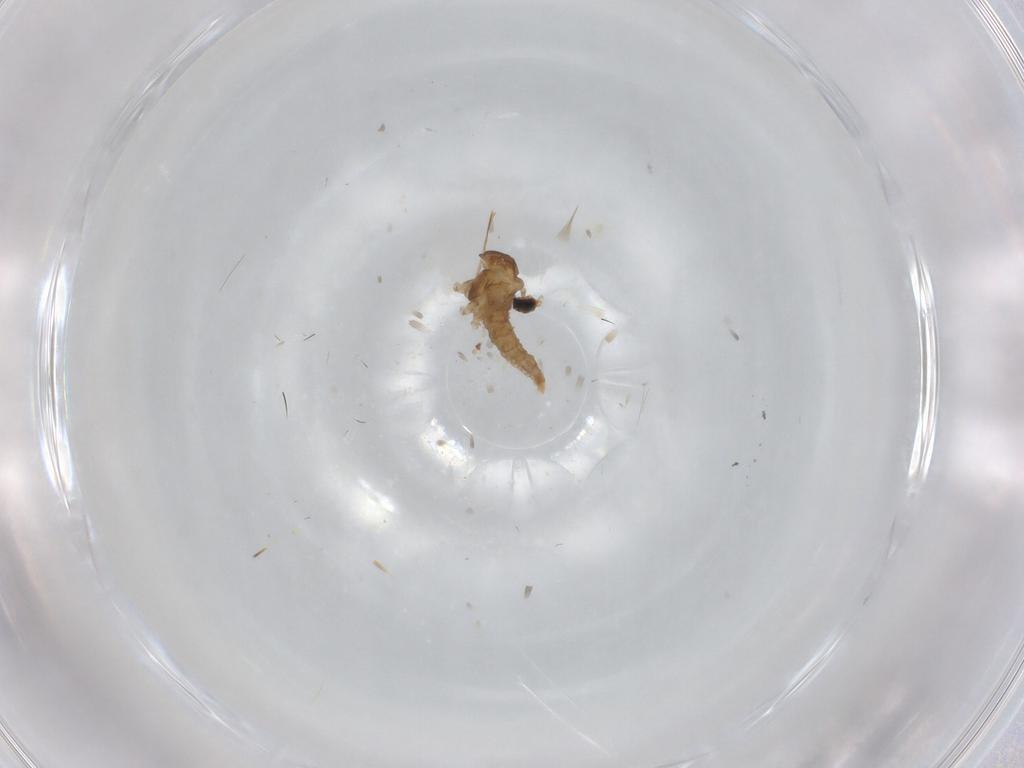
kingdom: Animalia
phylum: Arthropoda
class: Insecta
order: Diptera
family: Cecidomyiidae
